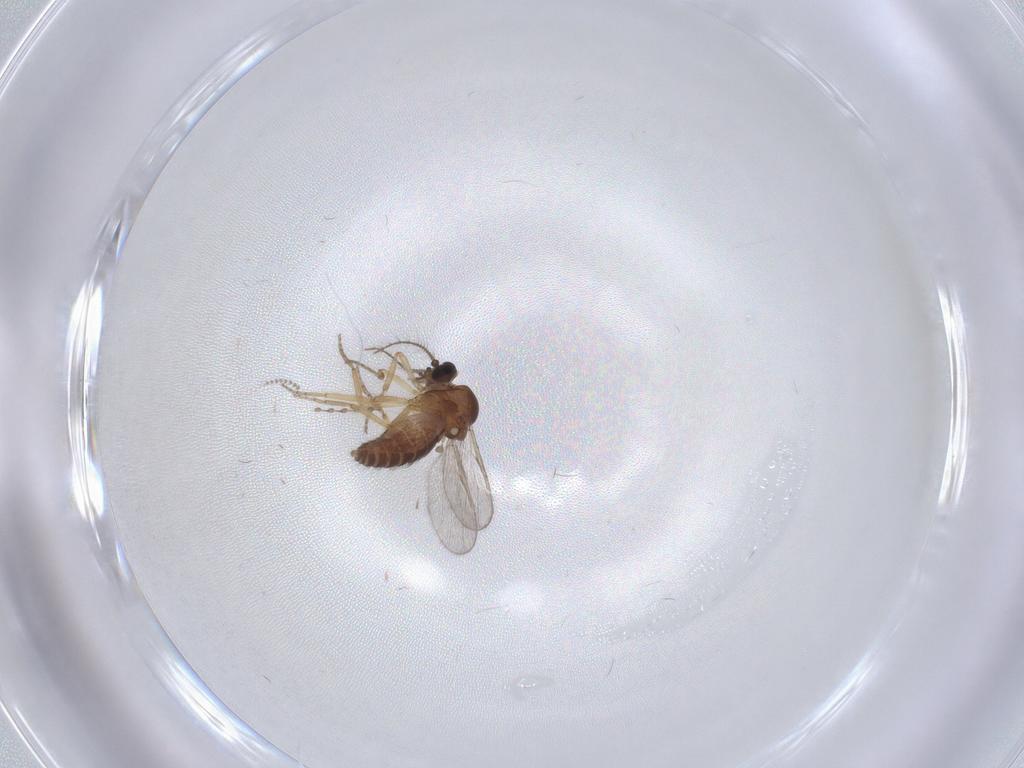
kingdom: Animalia
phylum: Arthropoda
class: Insecta
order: Diptera
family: Ceratopogonidae
